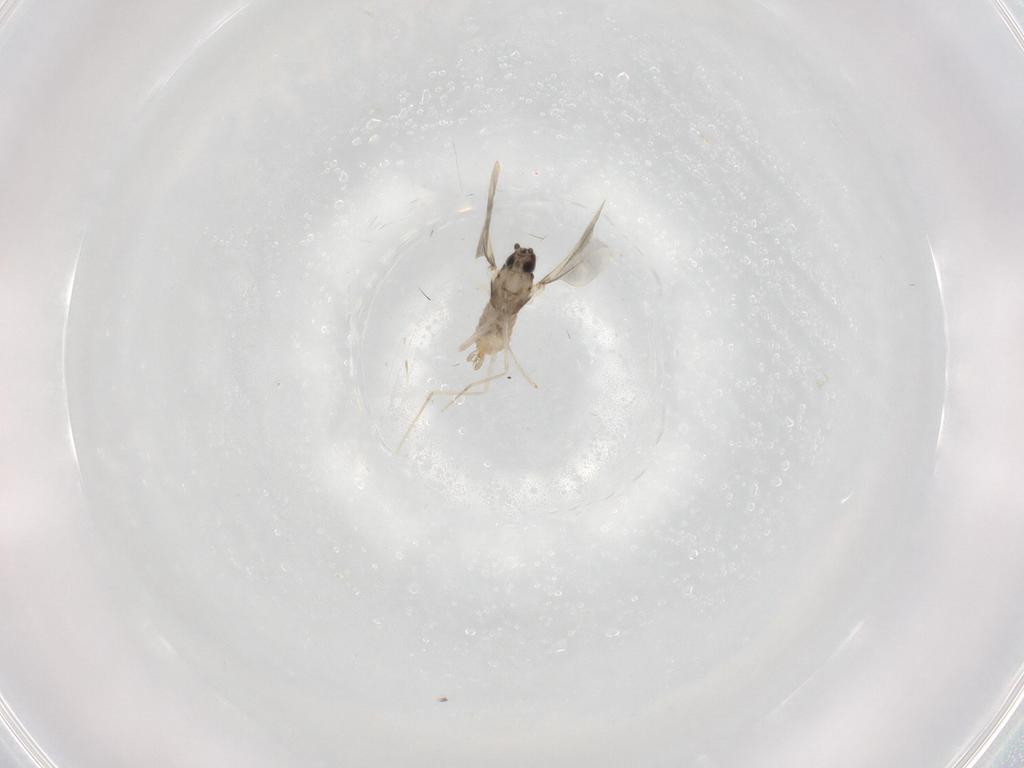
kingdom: Animalia
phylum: Arthropoda
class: Insecta
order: Diptera
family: Cecidomyiidae
